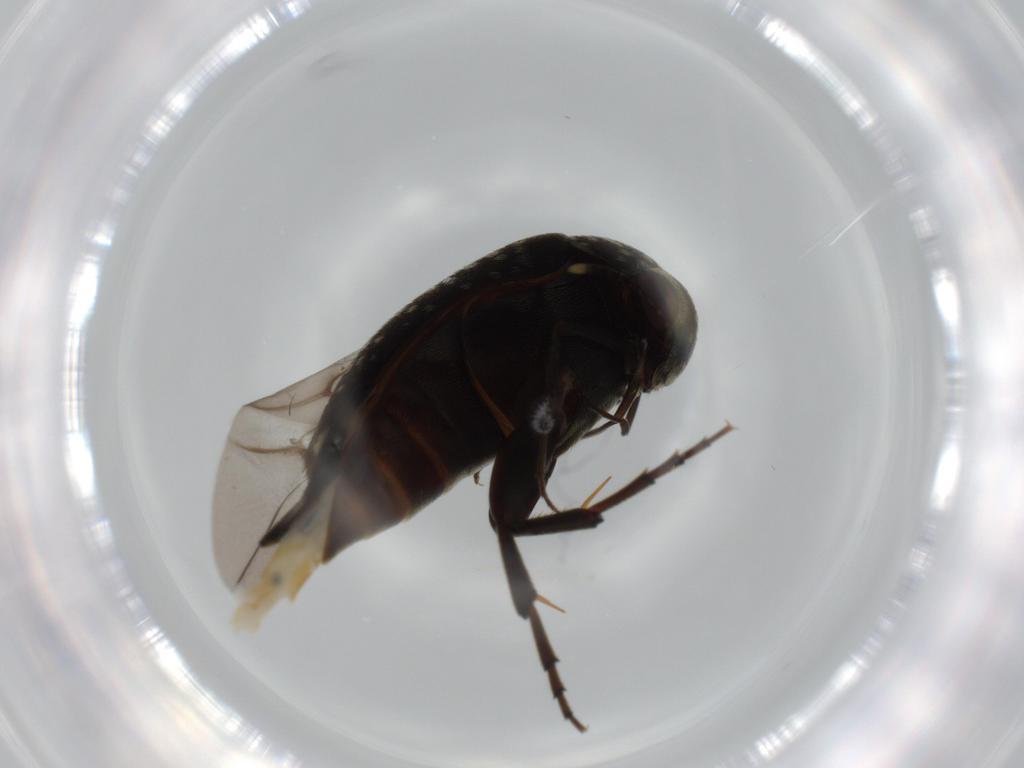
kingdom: Animalia
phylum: Arthropoda
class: Insecta
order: Coleoptera
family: Mordellidae
